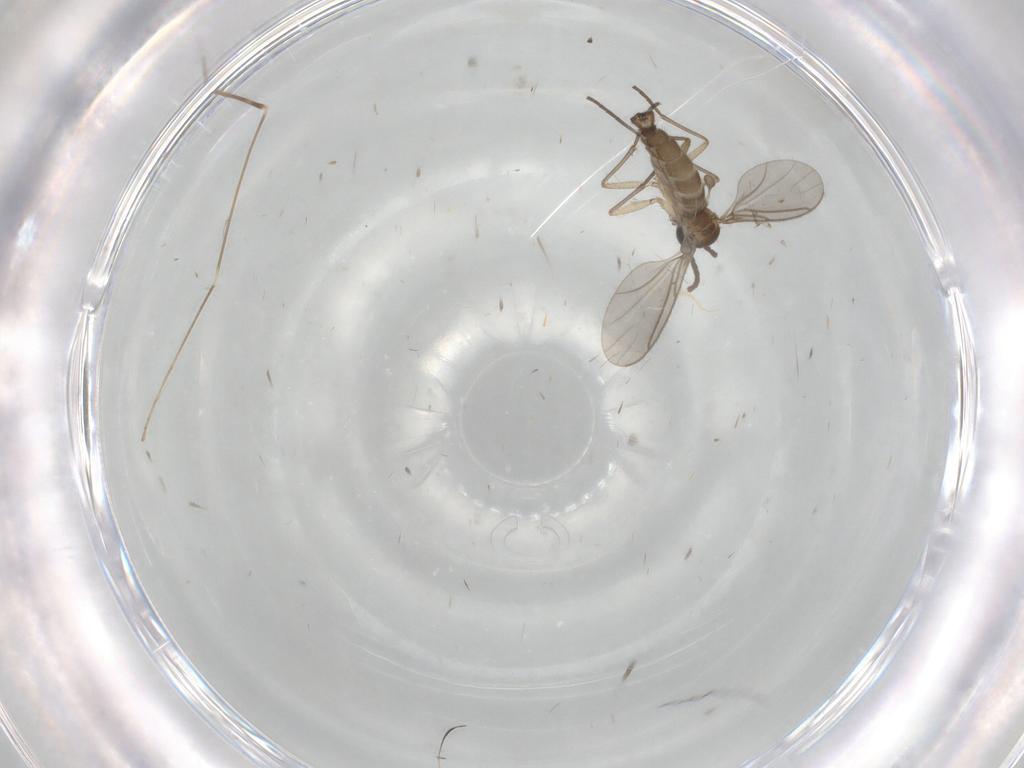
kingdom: Animalia
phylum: Arthropoda
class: Insecta
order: Diptera
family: Sciaridae
